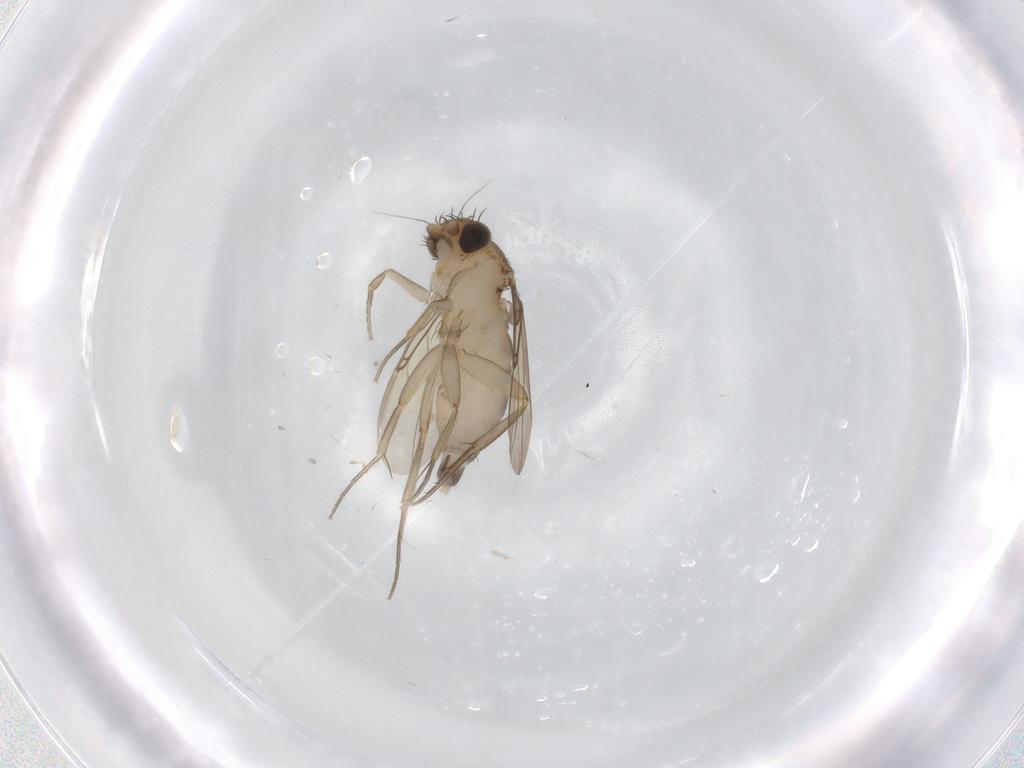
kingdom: Animalia
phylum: Arthropoda
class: Insecta
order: Diptera
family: Phoridae
